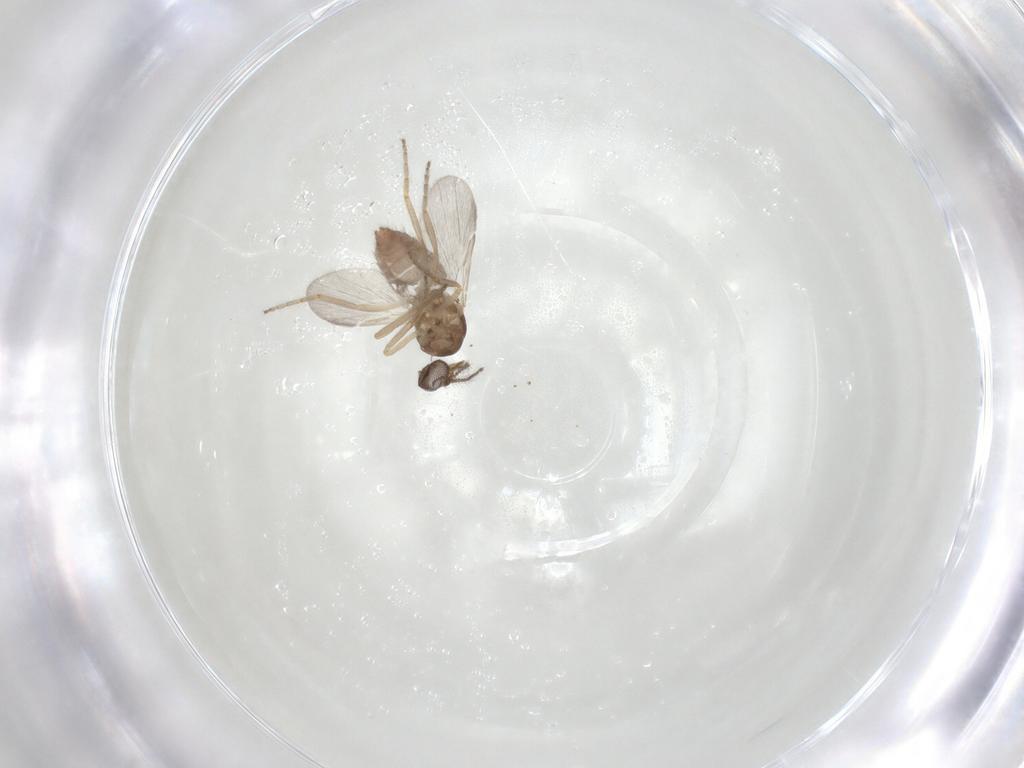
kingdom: Animalia
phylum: Arthropoda
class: Insecta
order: Diptera
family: Ceratopogonidae
